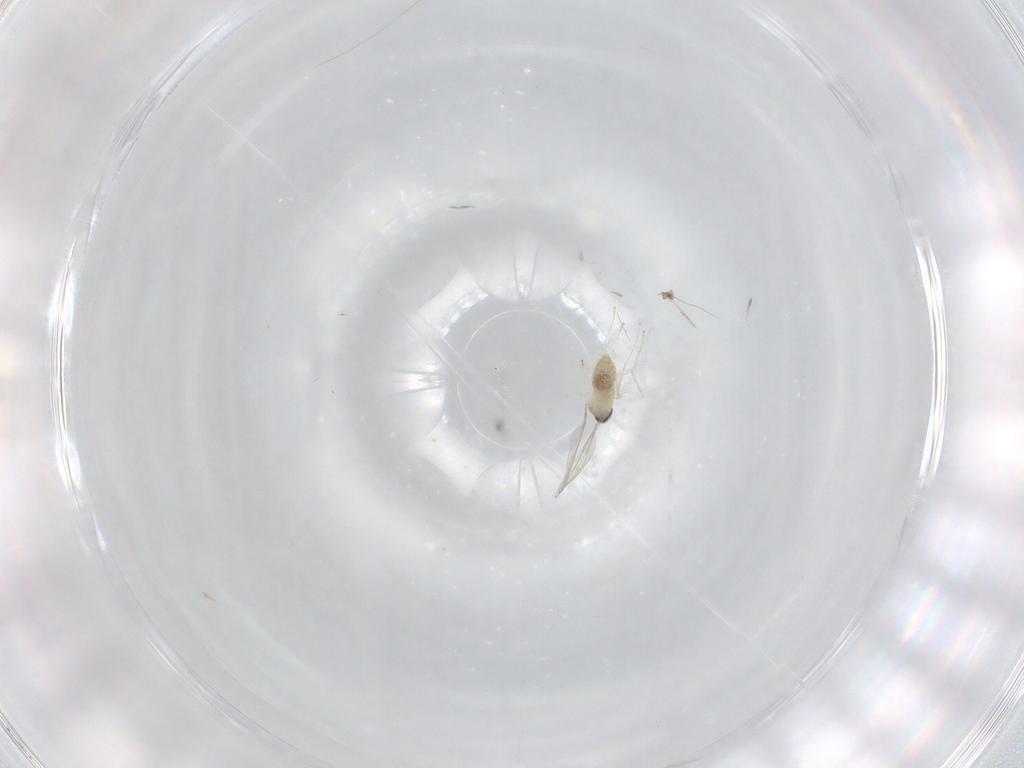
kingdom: Animalia
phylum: Arthropoda
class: Insecta
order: Diptera
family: Cecidomyiidae
